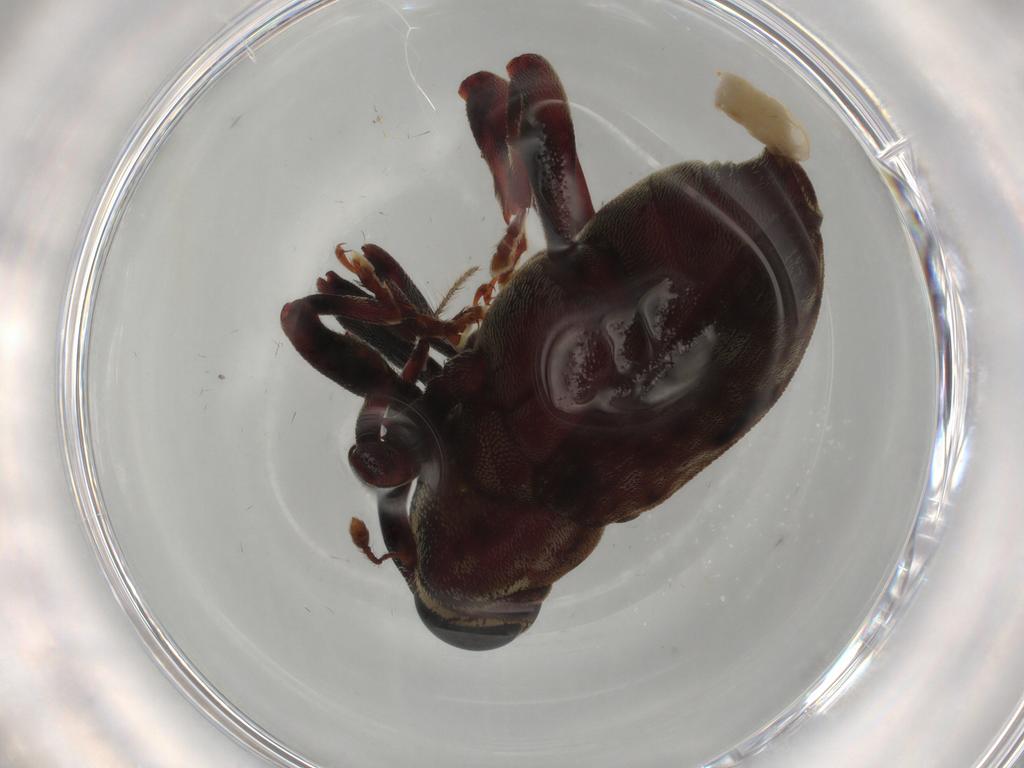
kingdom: Animalia
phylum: Arthropoda
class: Insecta
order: Coleoptera
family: Curculionidae
